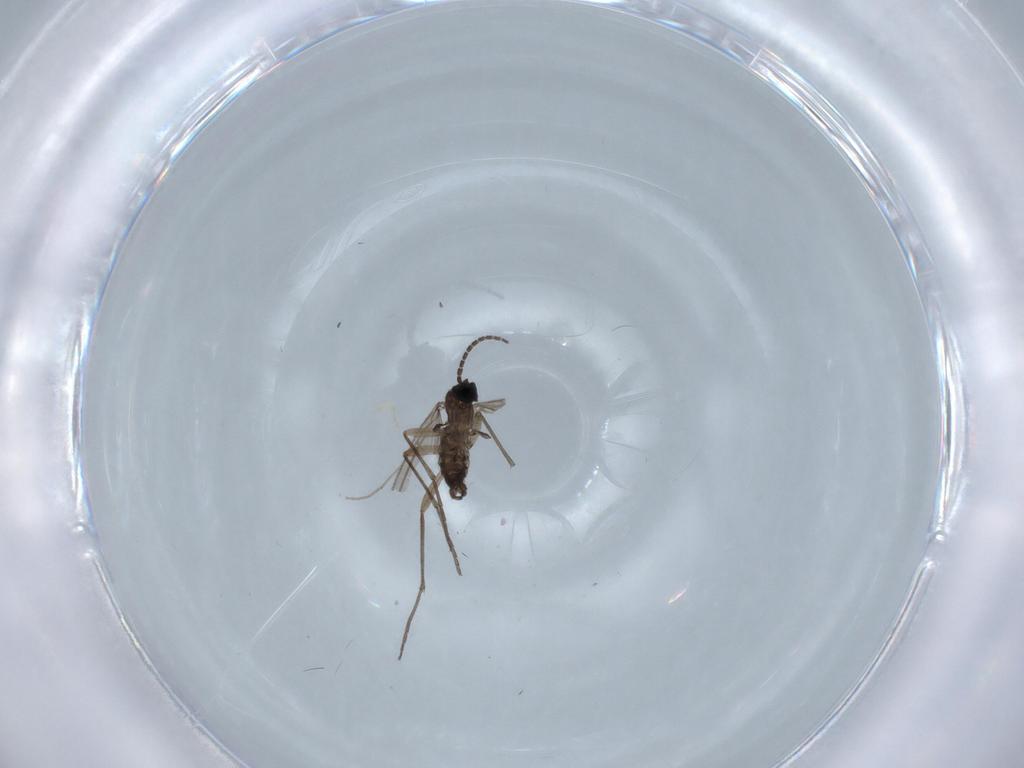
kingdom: Animalia
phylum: Arthropoda
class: Insecta
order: Diptera
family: Sciaridae
